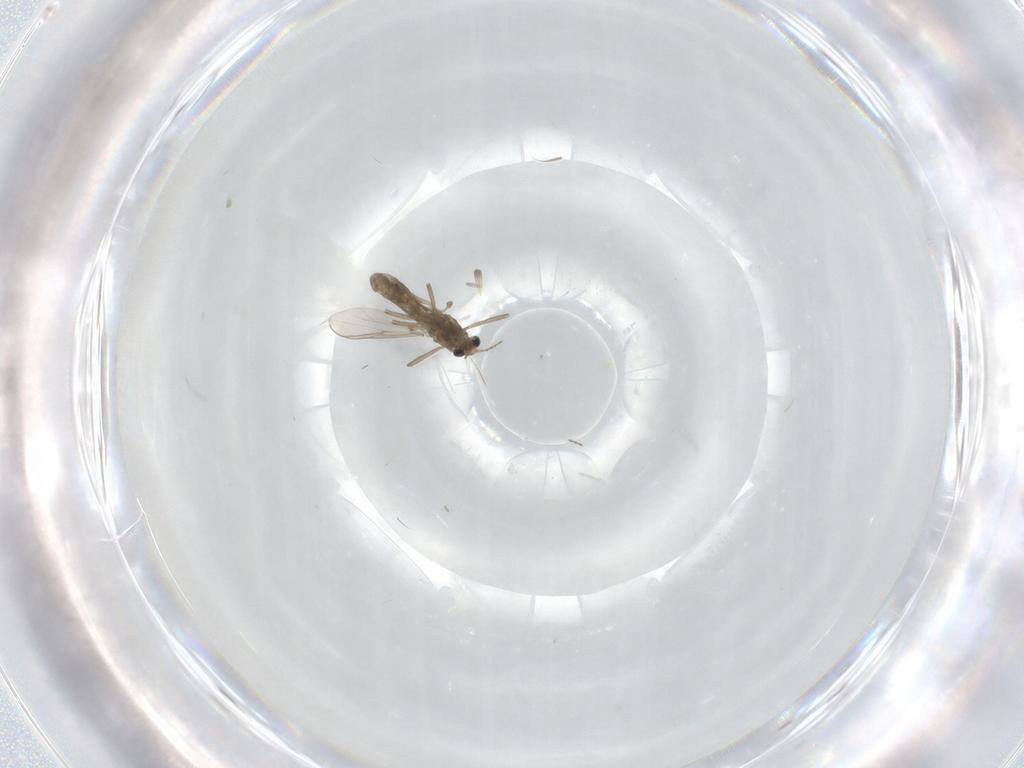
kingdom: Animalia
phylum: Arthropoda
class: Insecta
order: Diptera
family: Chironomidae
